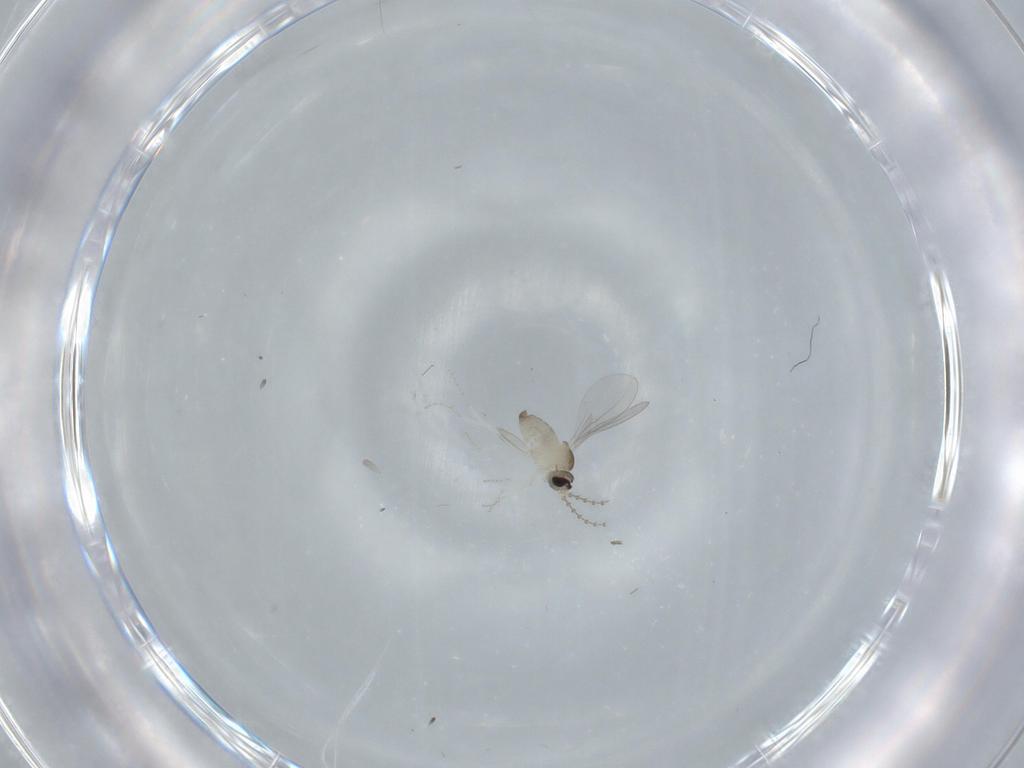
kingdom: Animalia
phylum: Arthropoda
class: Insecta
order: Diptera
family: Cecidomyiidae
